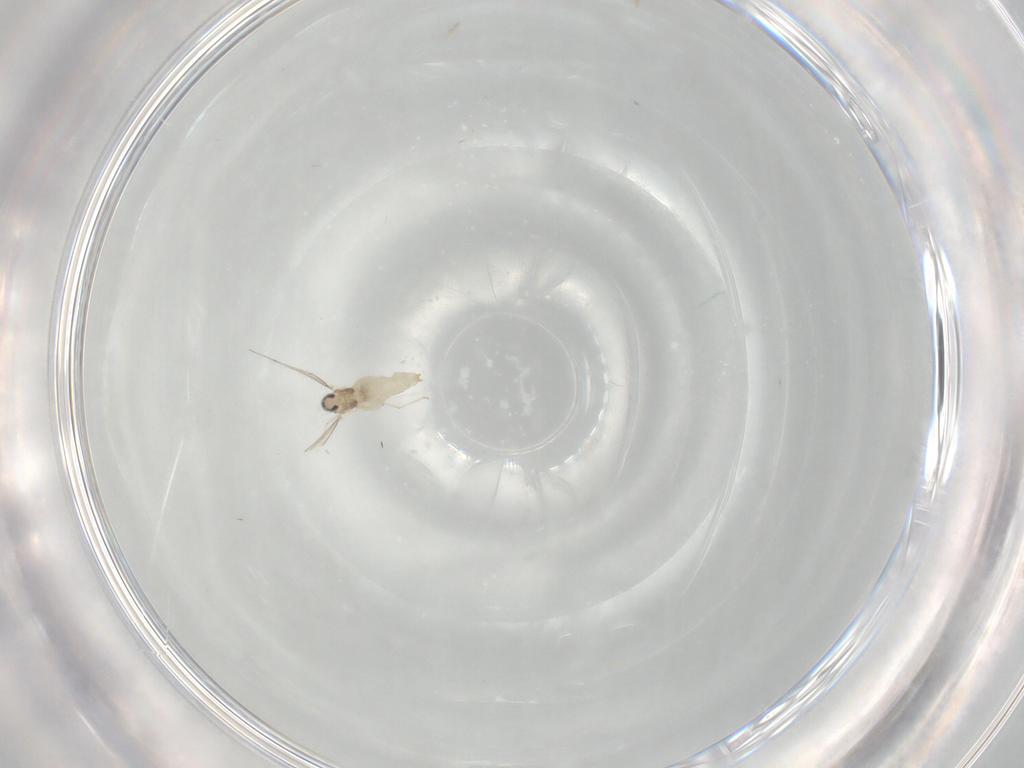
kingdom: Animalia
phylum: Arthropoda
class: Insecta
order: Diptera
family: Cecidomyiidae
